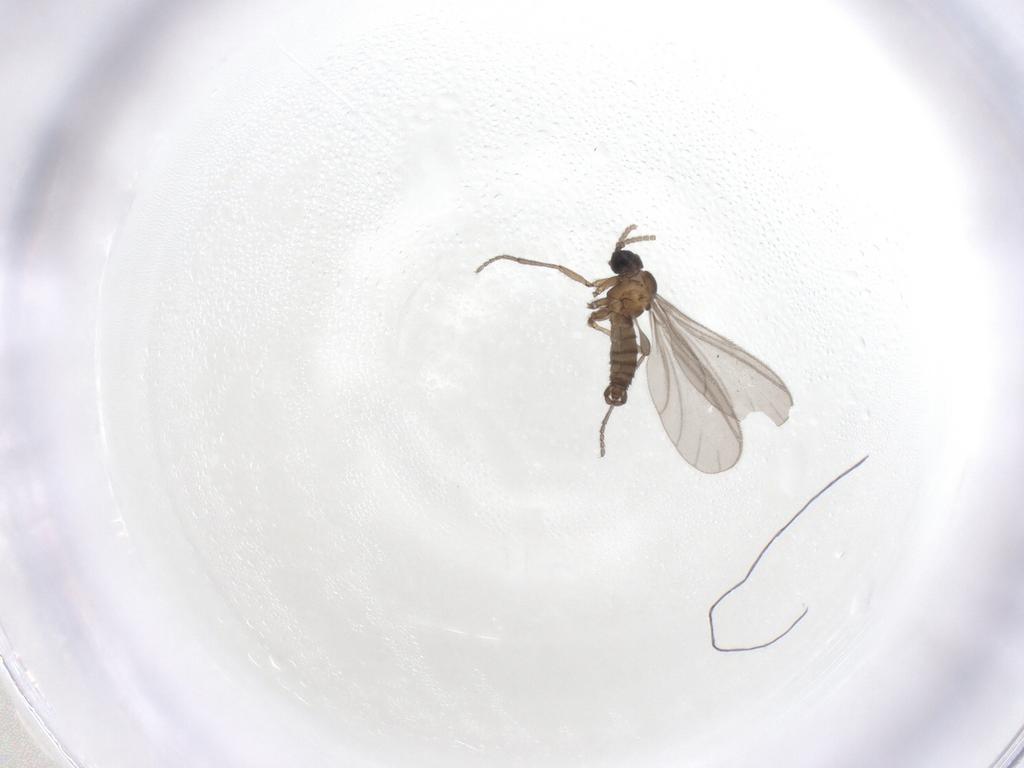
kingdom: Animalia
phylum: Arthropoda
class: Insecta
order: Diptera
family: Sciaridae
